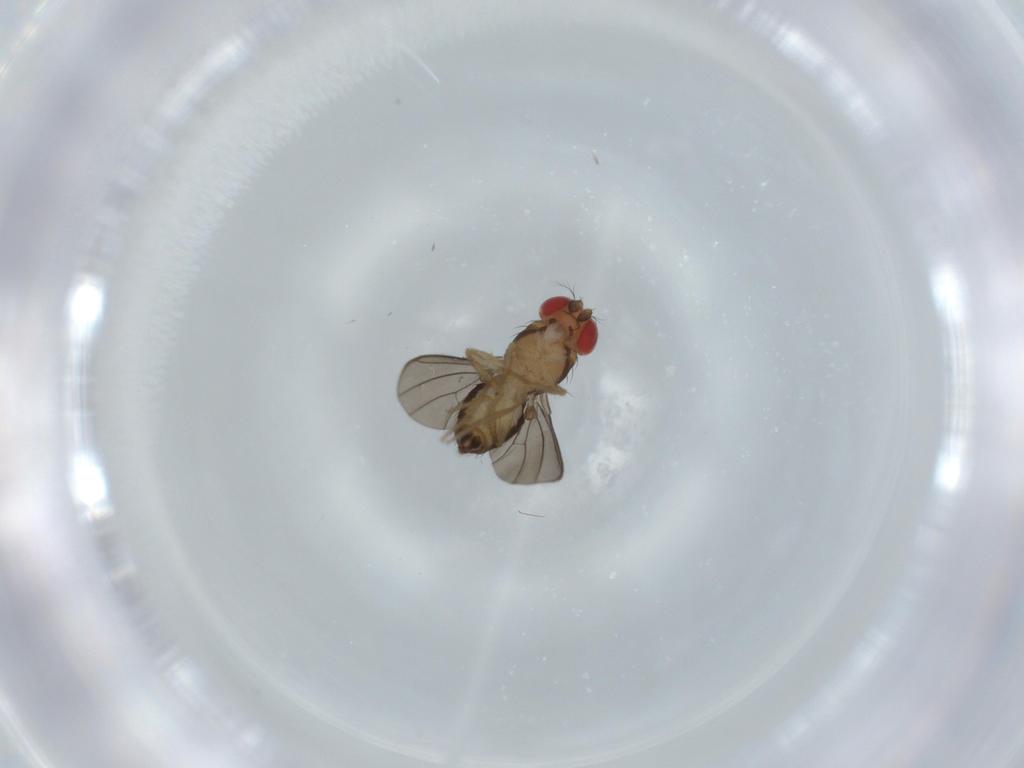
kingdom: Animalia
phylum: Arthropoda
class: Insecta
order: Diptera
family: Drosophilidae
